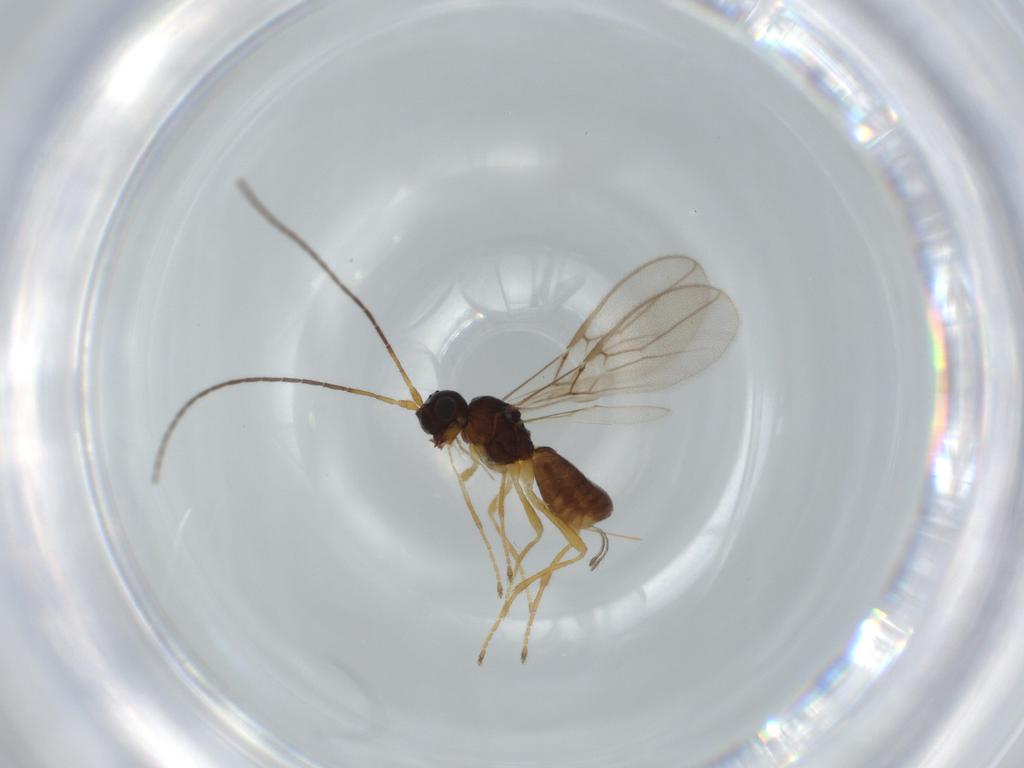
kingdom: Animalia
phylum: Arthropoda
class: Insecta
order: Hymenoptera
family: Braconidae
